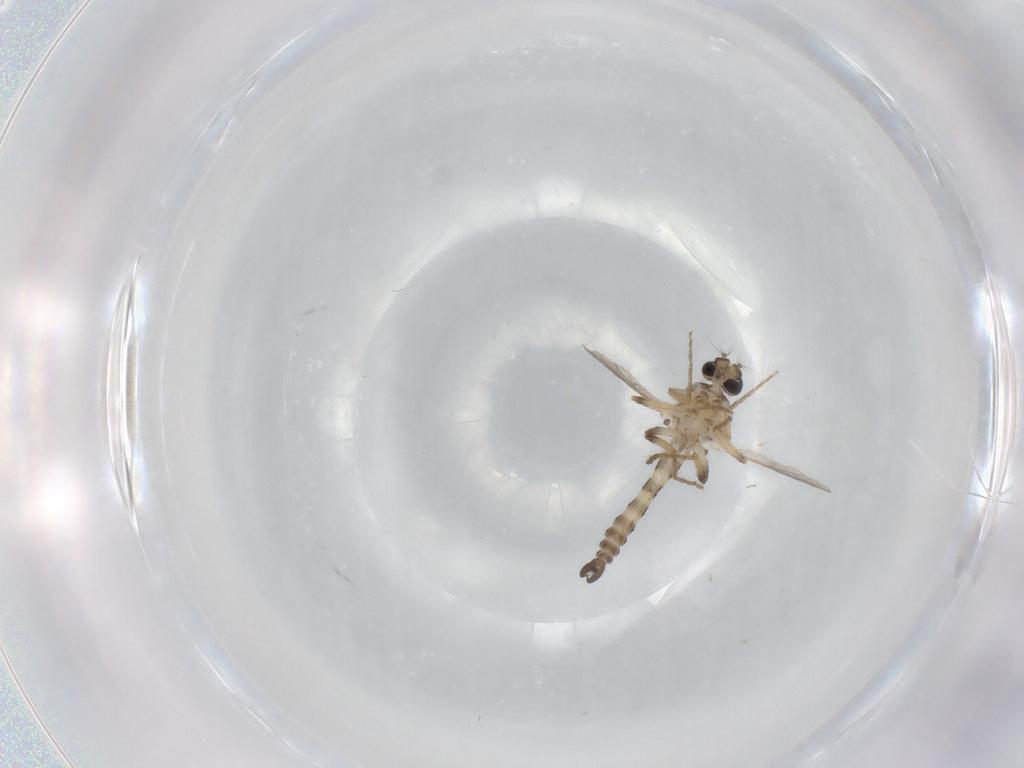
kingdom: Animalia
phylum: Arthropoda
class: Insecta
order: Diptera
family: Ceratopogonidae
